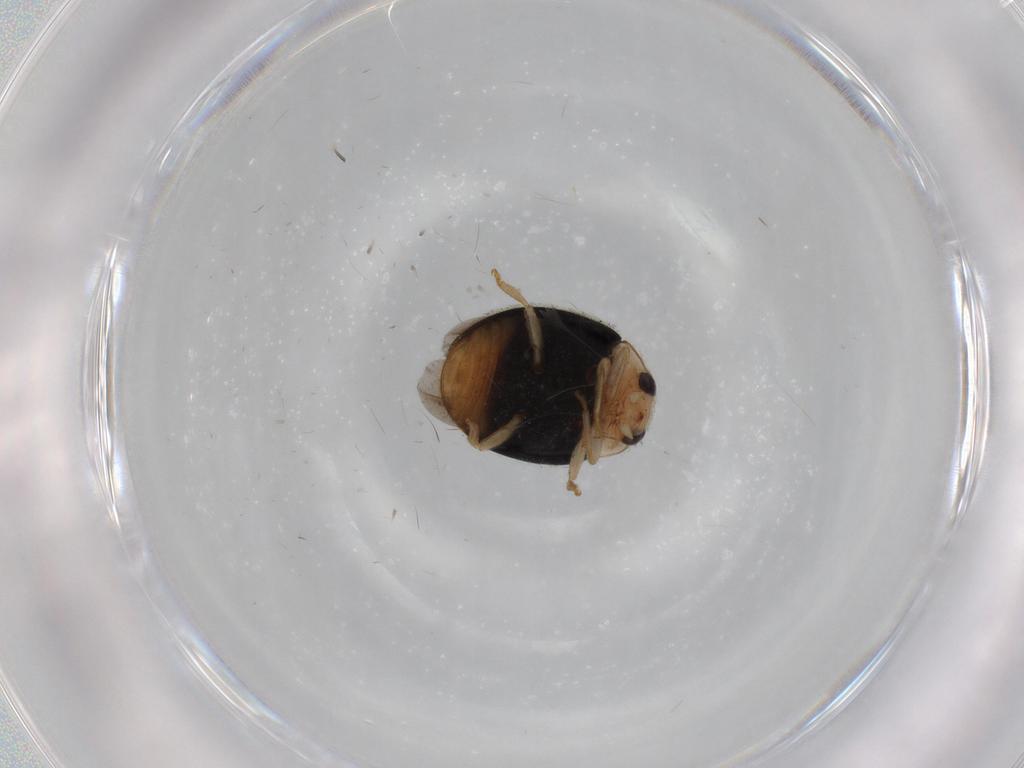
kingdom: Animalia
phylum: Arthropoda
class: Insecta
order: Coleoptera
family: Coccinellidae
